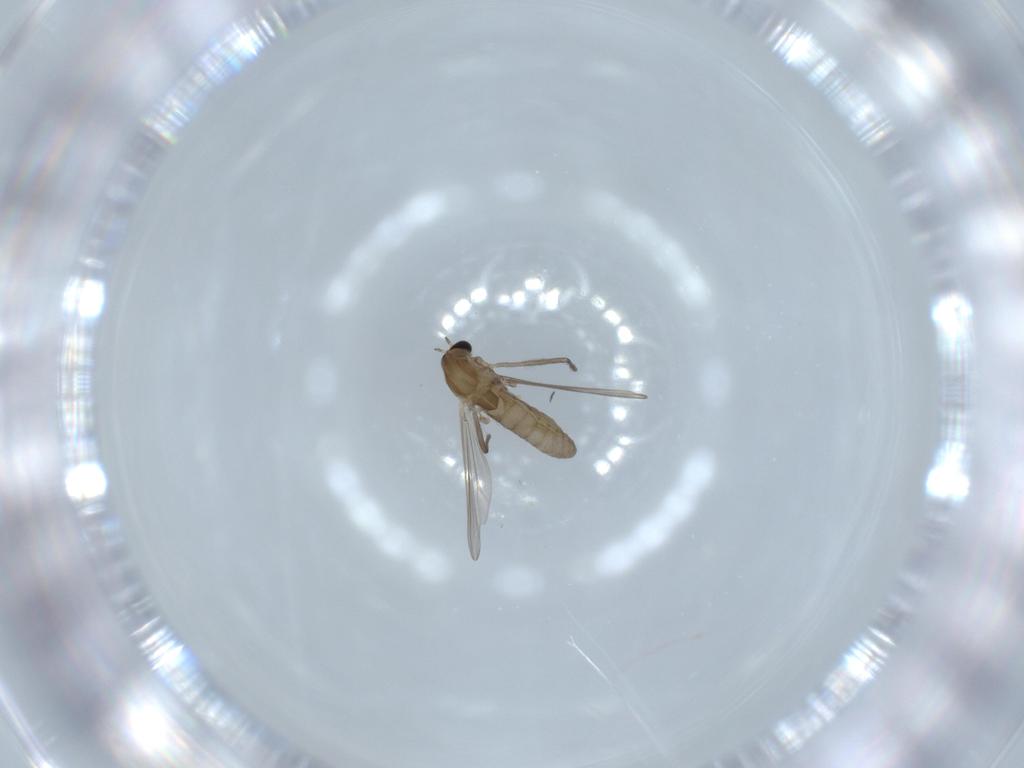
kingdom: Animalia
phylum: Arthropoda
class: Insecta
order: Diptera
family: Chironomidae
